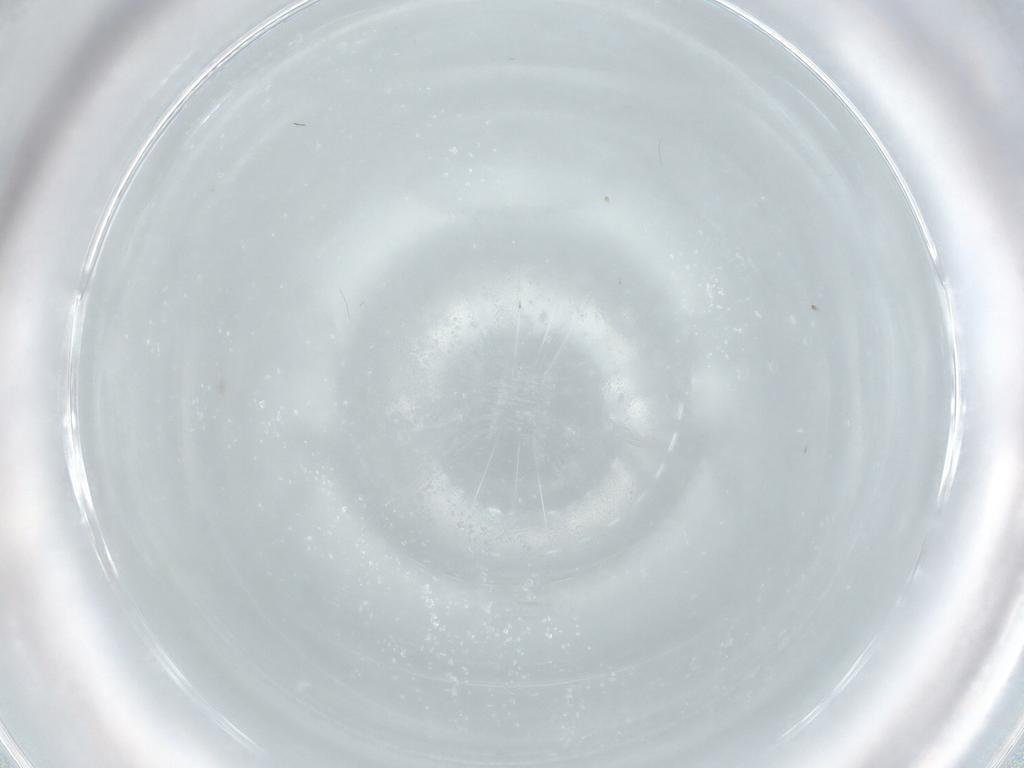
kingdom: Animalia
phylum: Arthropoda
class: Insecta
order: Diptera
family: Chironomidae
